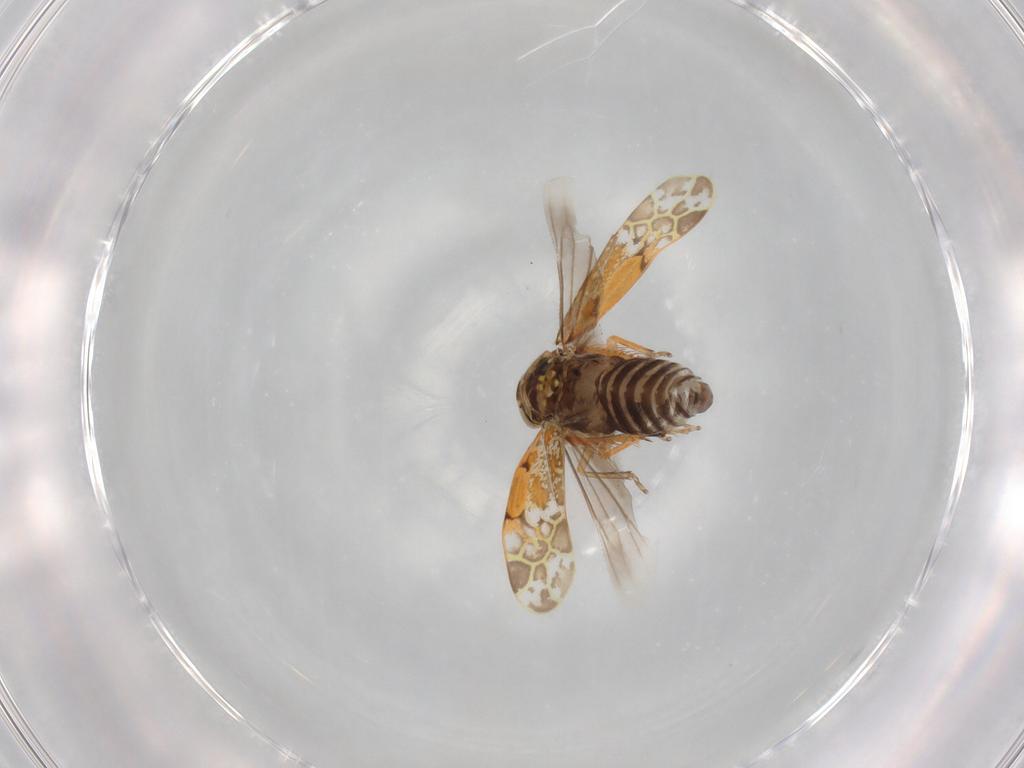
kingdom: Animalia
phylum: Arthropoda
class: Insecta
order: Hemiptera
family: Cicadellidae
